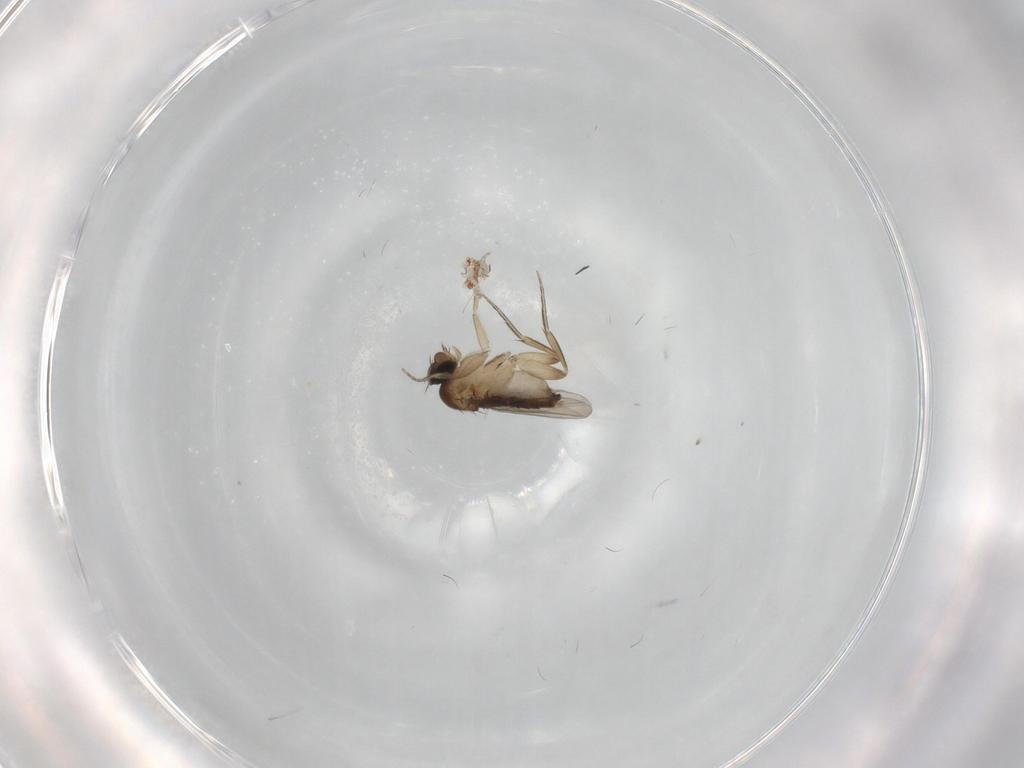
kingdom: Animalia
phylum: Arthropoda
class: Insecta
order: Diptera
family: Phoridae
